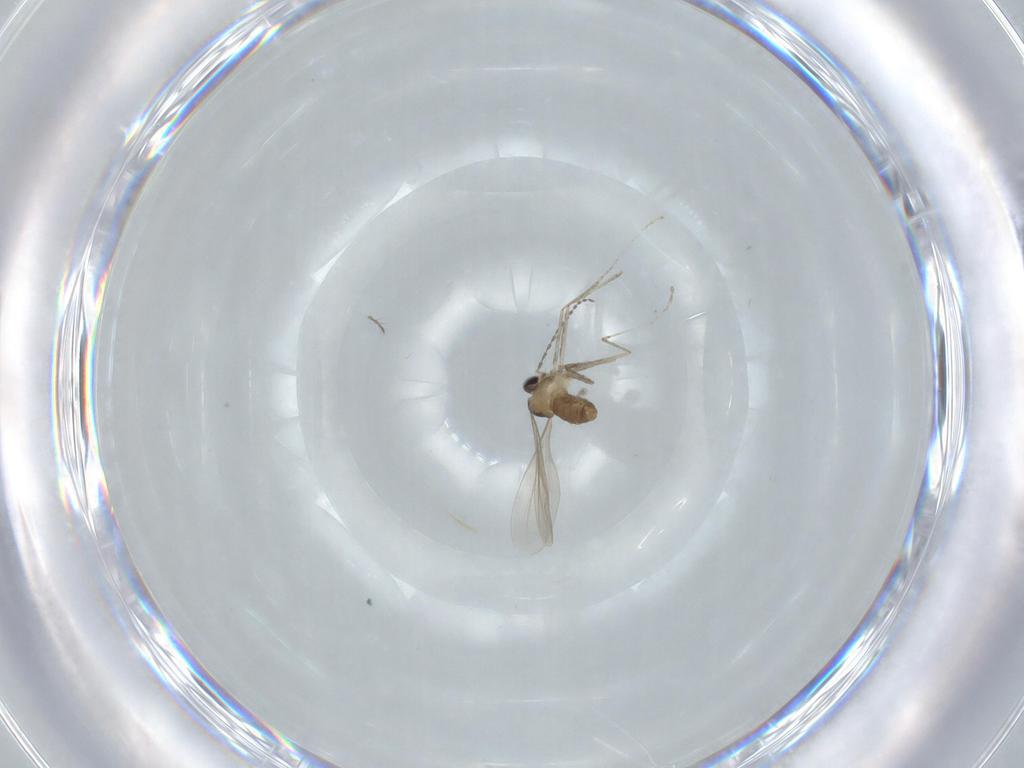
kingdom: Animalia
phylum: Arthropoda
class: Insecta
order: Diptera
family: Chironomidae
